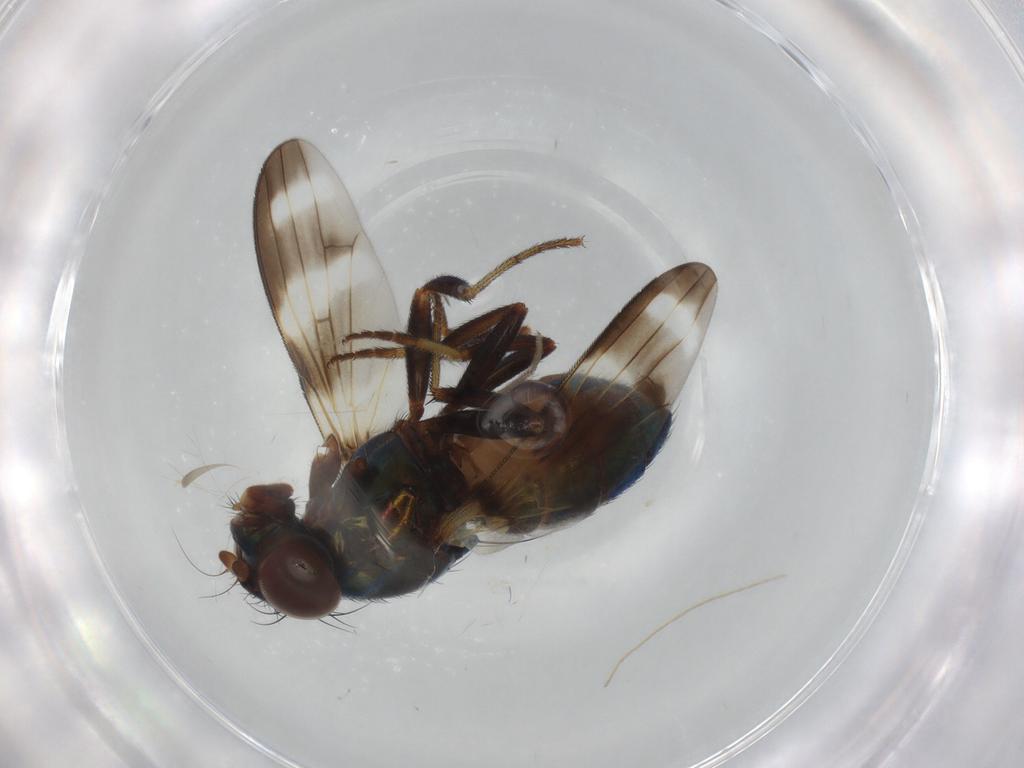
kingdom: Animalia
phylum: Arthropoda
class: Insecta
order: Diptera
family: Ulidiidae
